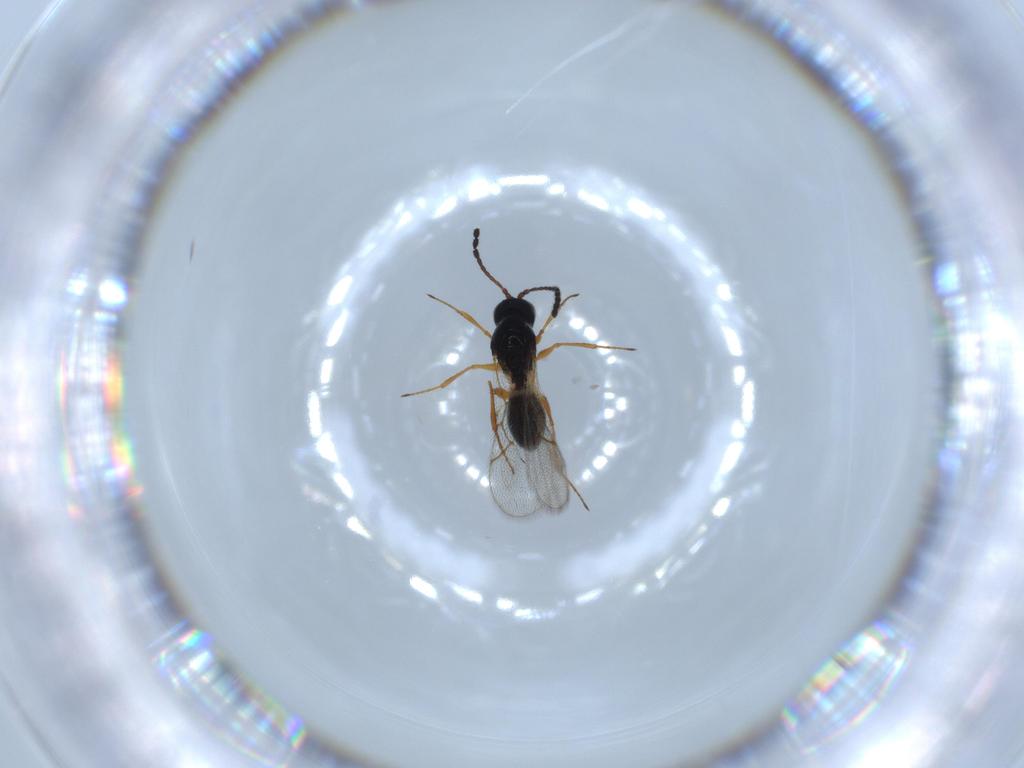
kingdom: Animalia
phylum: Arthropoda
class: Insecta
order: Hymenoptera
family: Figitidae
